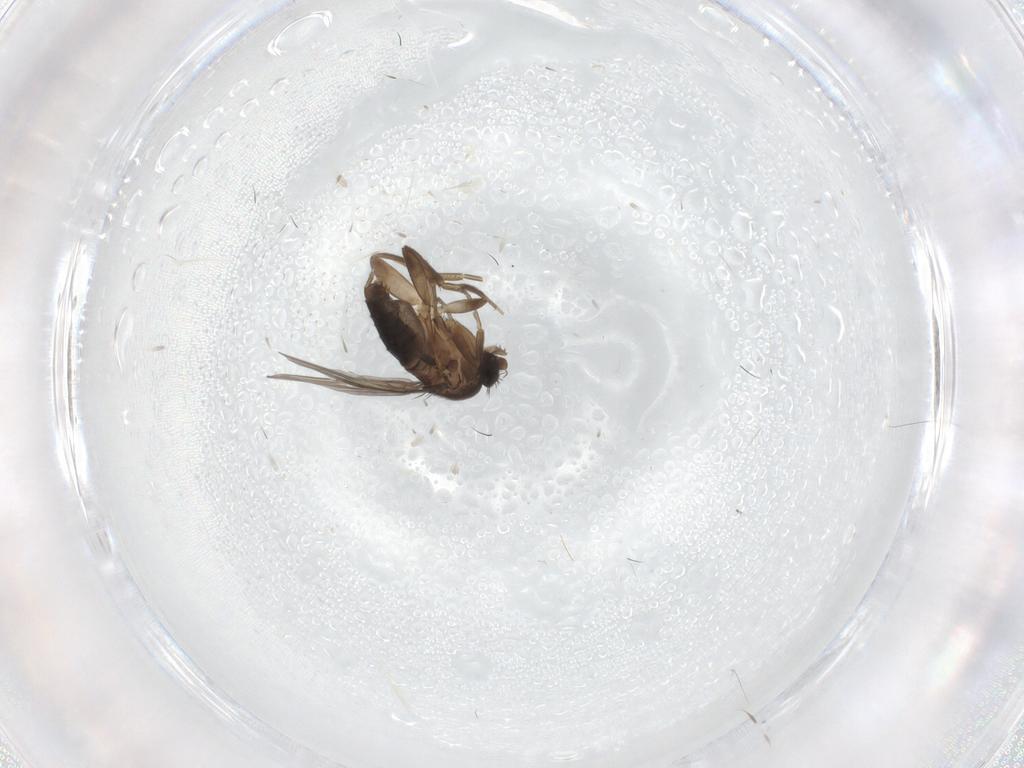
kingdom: Animalia
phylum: Arthropoda
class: Insecta
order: Diptera
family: Phoridae
